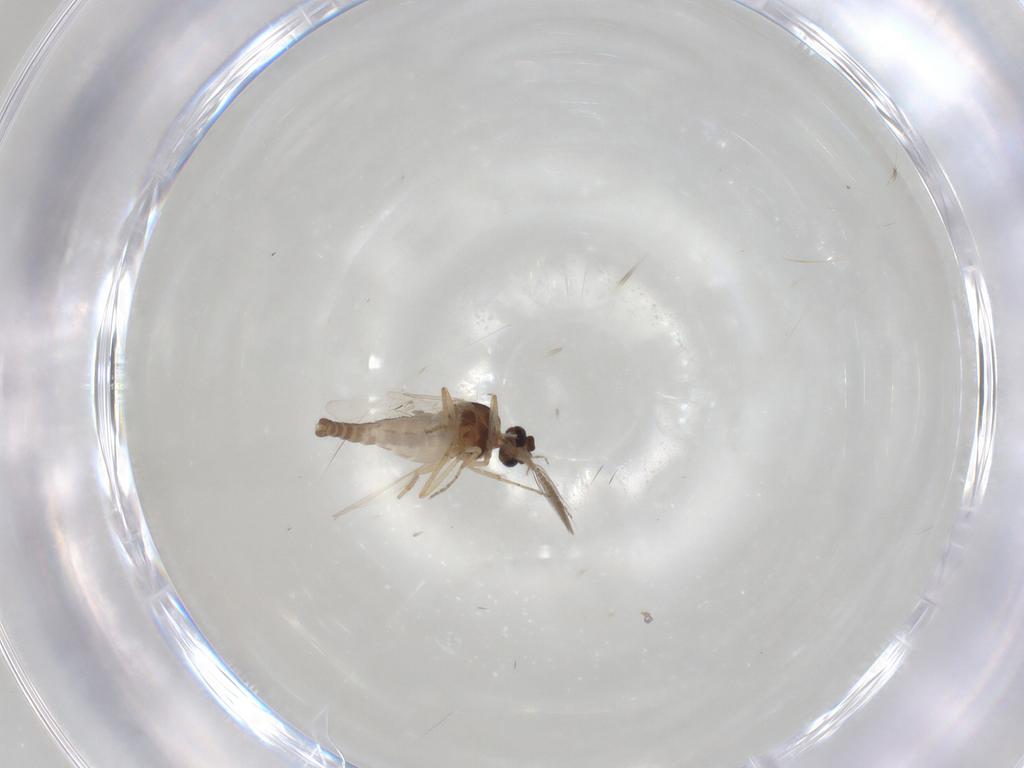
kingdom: Animalia
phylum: Arthropoda
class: Insecta
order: Diptera
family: Ceratopogonidae
